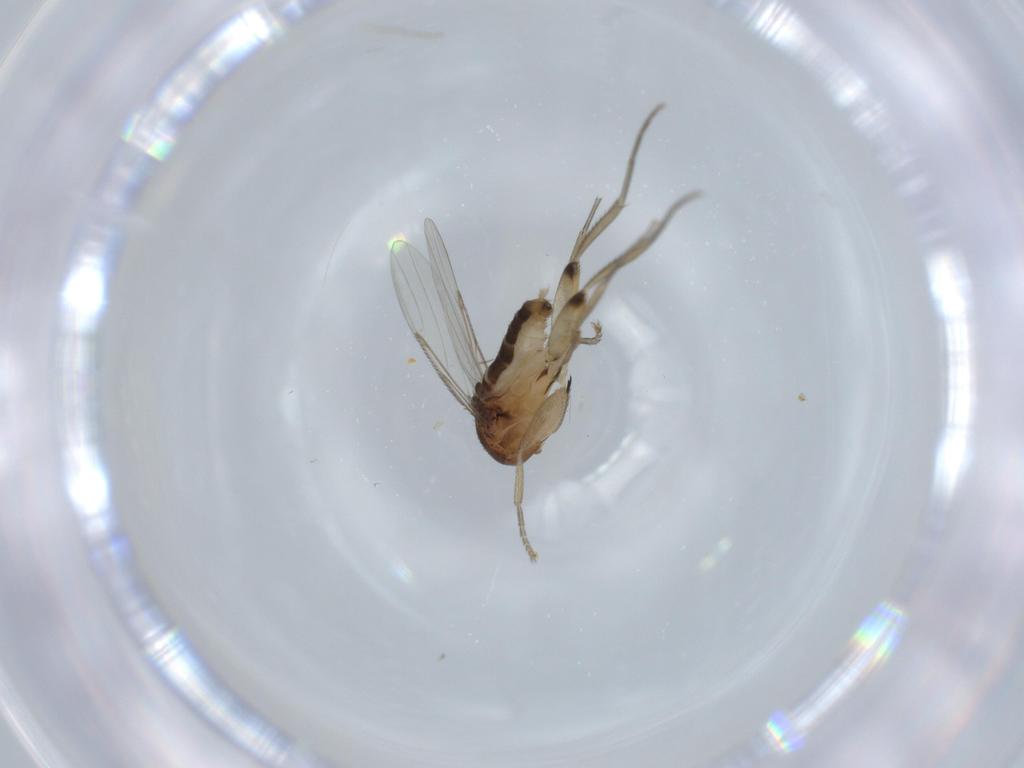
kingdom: Animalia
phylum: Arthropoda
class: Insecta
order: Diptera
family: Phoridae
